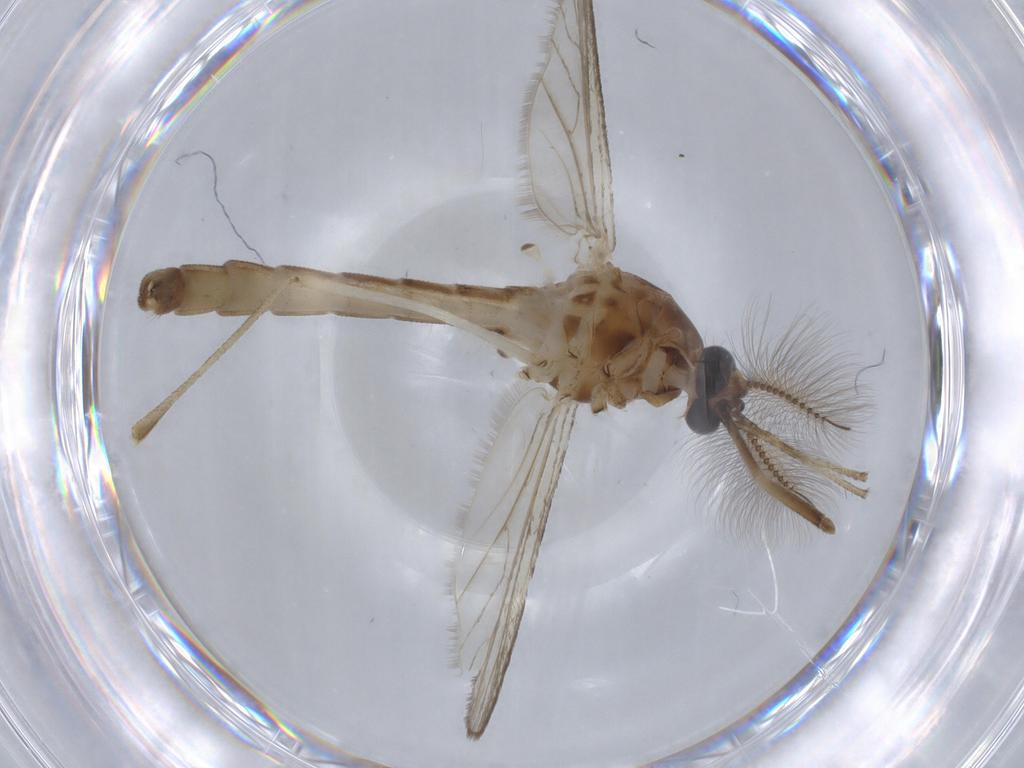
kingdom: Animalia
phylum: Arthropoda
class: Insecta
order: Diptera
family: Culicidae
